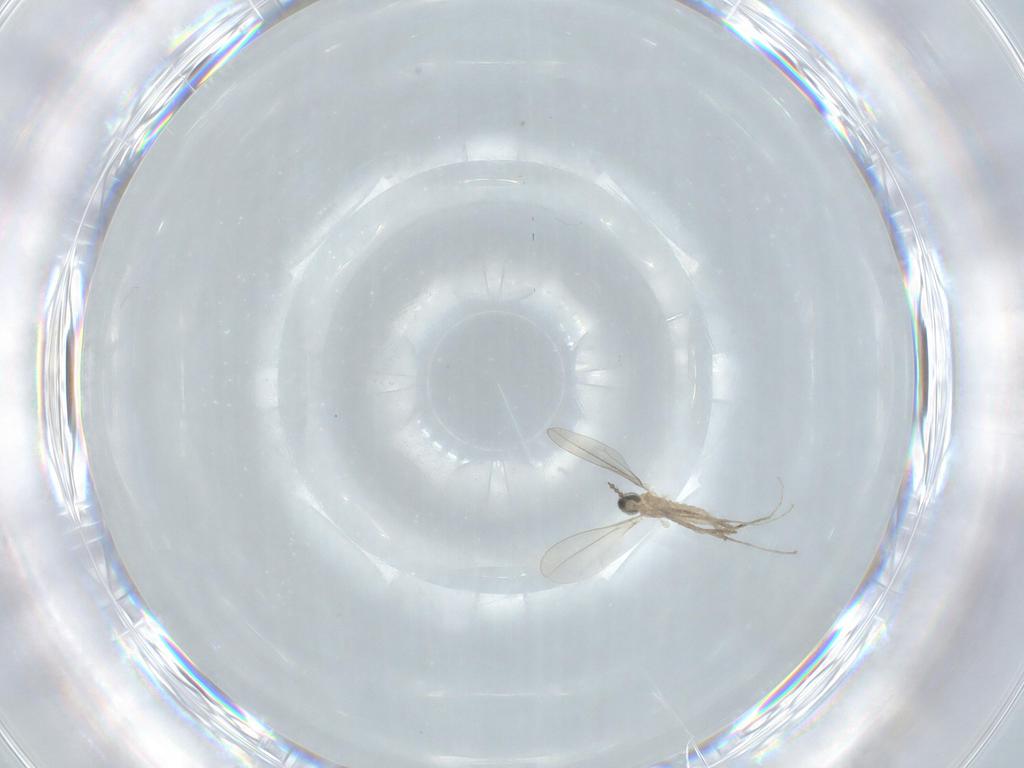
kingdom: Animalia
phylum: Arthropoda
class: Insecta
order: Diptera
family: Cecidomyiidae
